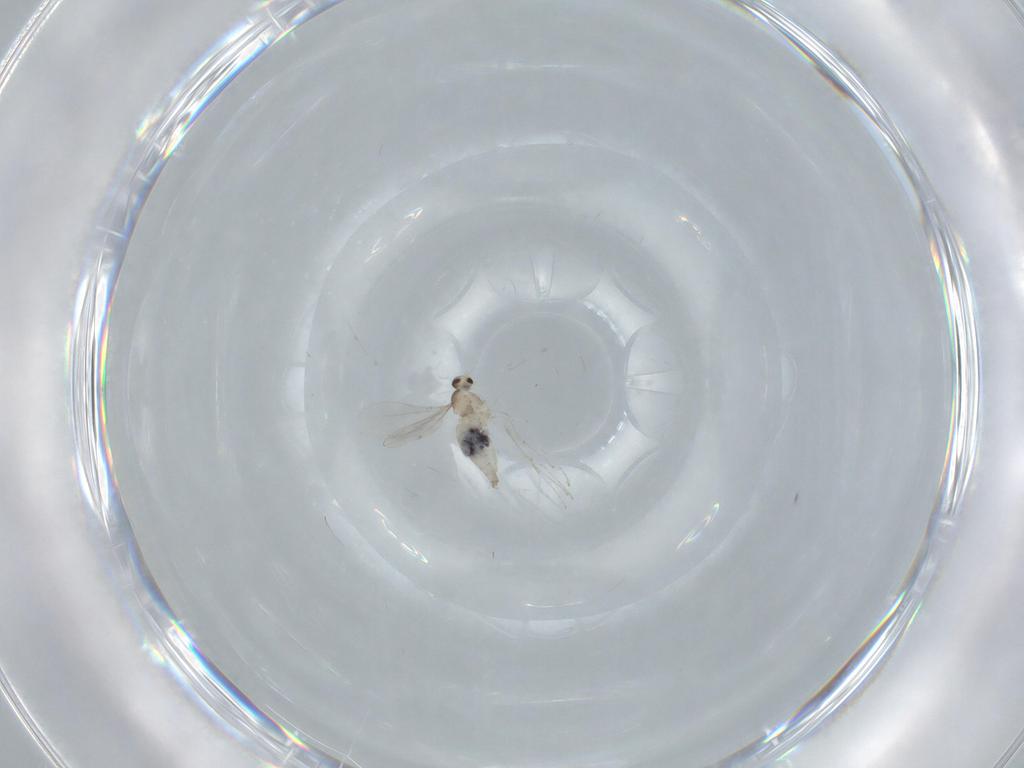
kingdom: Animalia
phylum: Arthropoda
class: Insecta
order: Diptera
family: Cecidomyiidae
